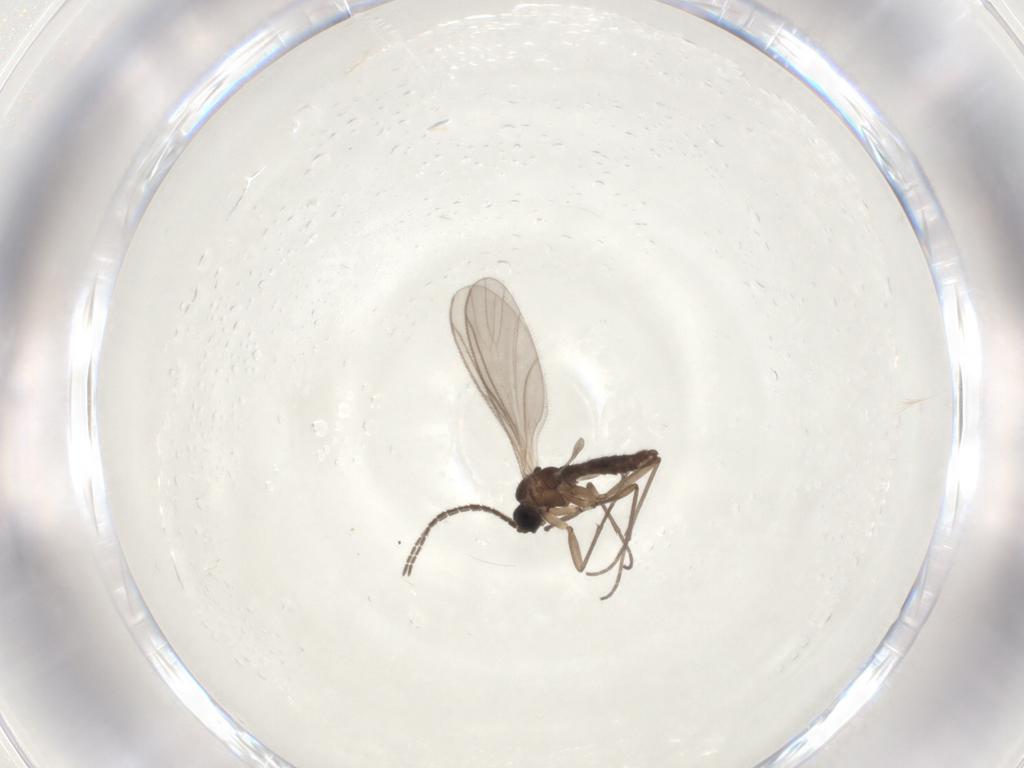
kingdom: Animalia
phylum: Arthropoda
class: Insecta
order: Diptera
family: Sciaridae
